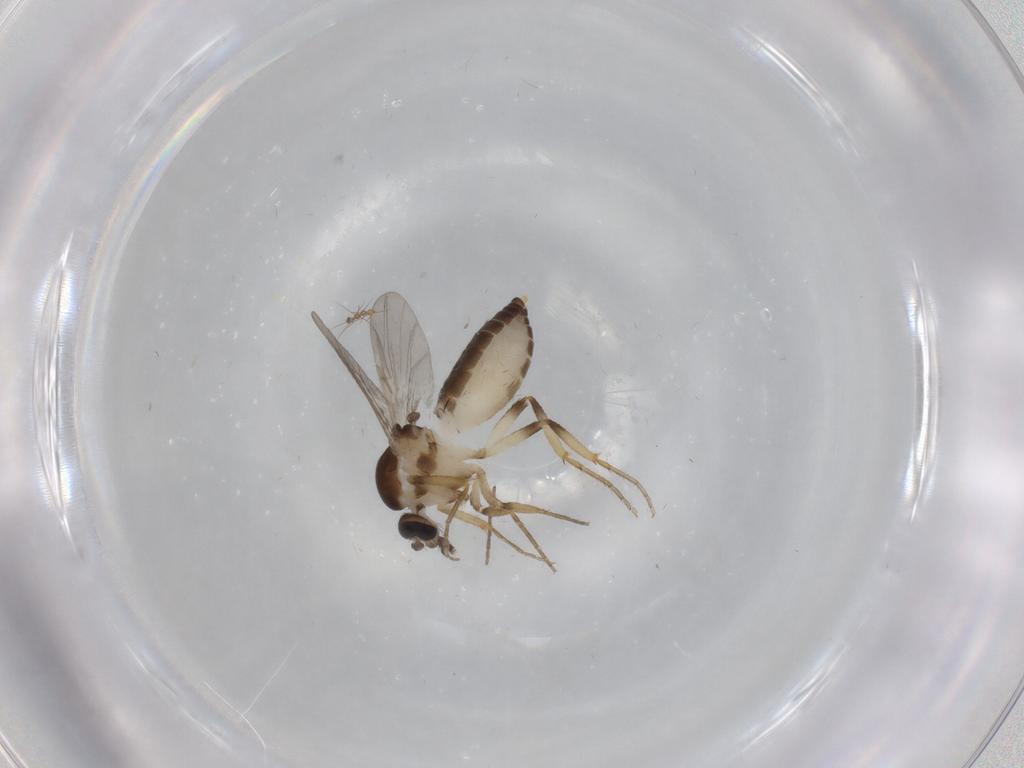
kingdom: Animalia
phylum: Arthropoda
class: Insecta
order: Diptera
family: Ceratopogonidae
